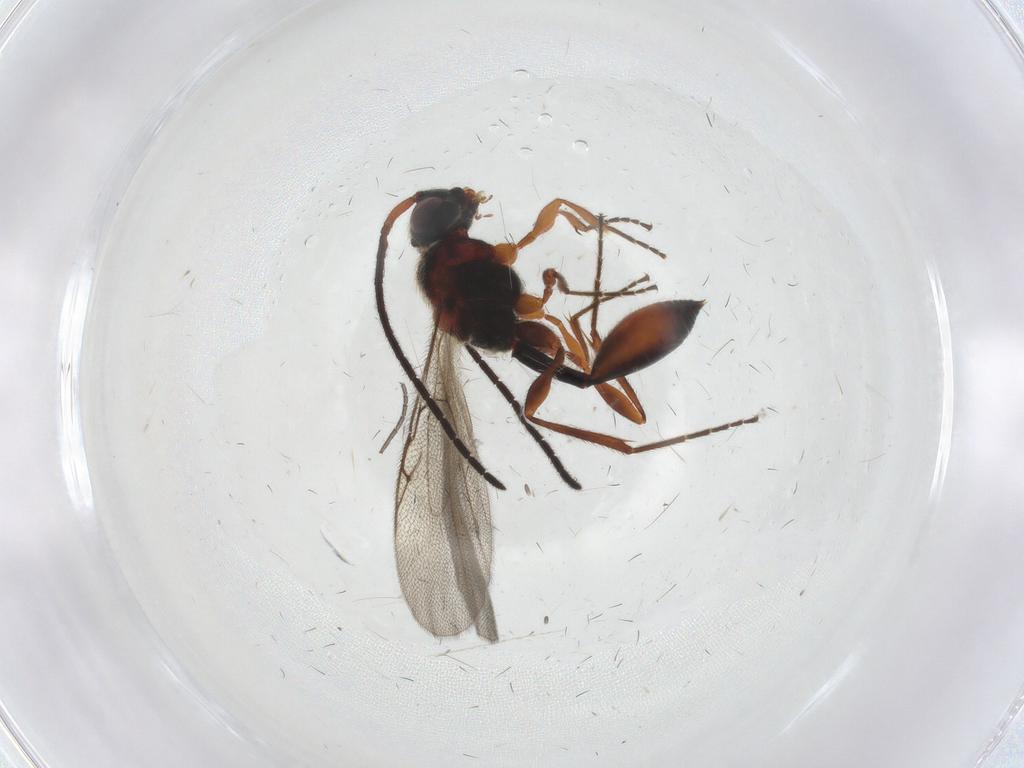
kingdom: Animalia
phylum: Arthropoda
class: Insecta
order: Hymenoptera
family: Diapriidae
